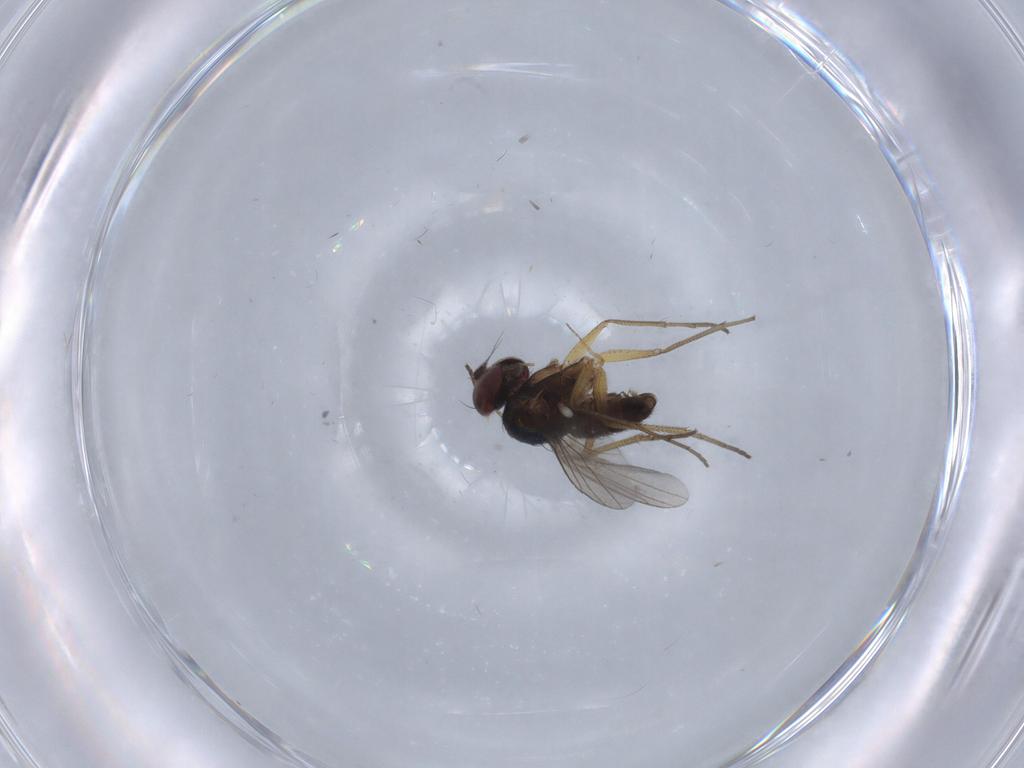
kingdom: Animalia
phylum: Arthropoda
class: Insecta
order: Diptera
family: Dolichopodidae
